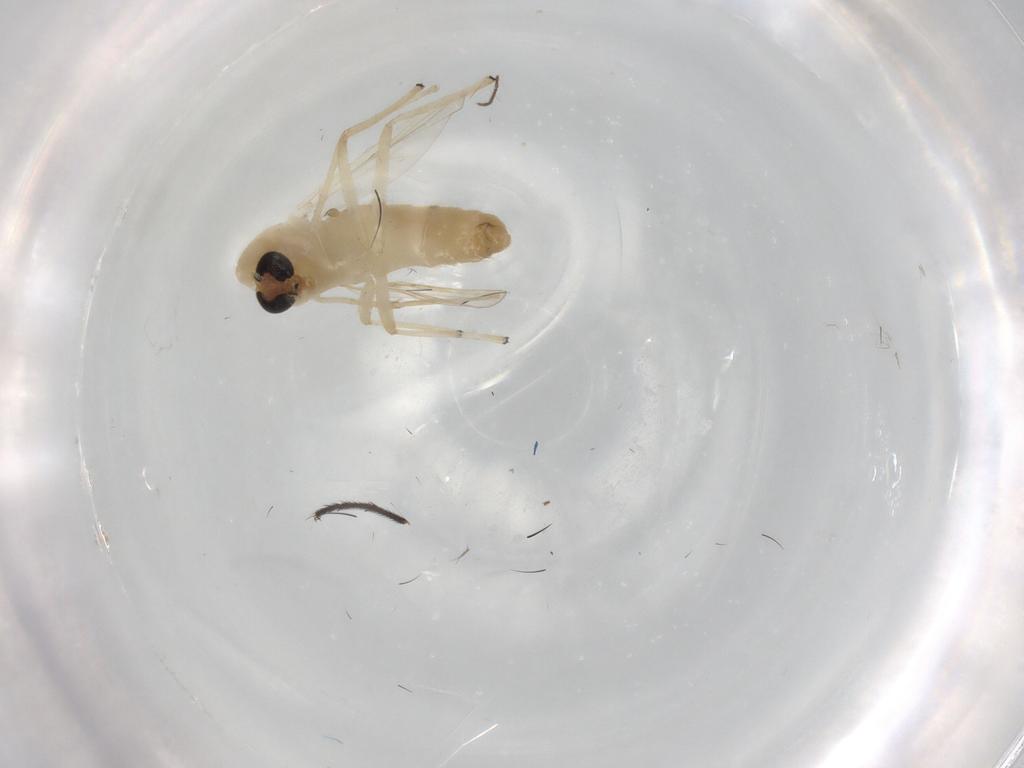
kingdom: Animalia
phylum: Arthropoda
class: Insecta
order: Diptera
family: Chironomidae
